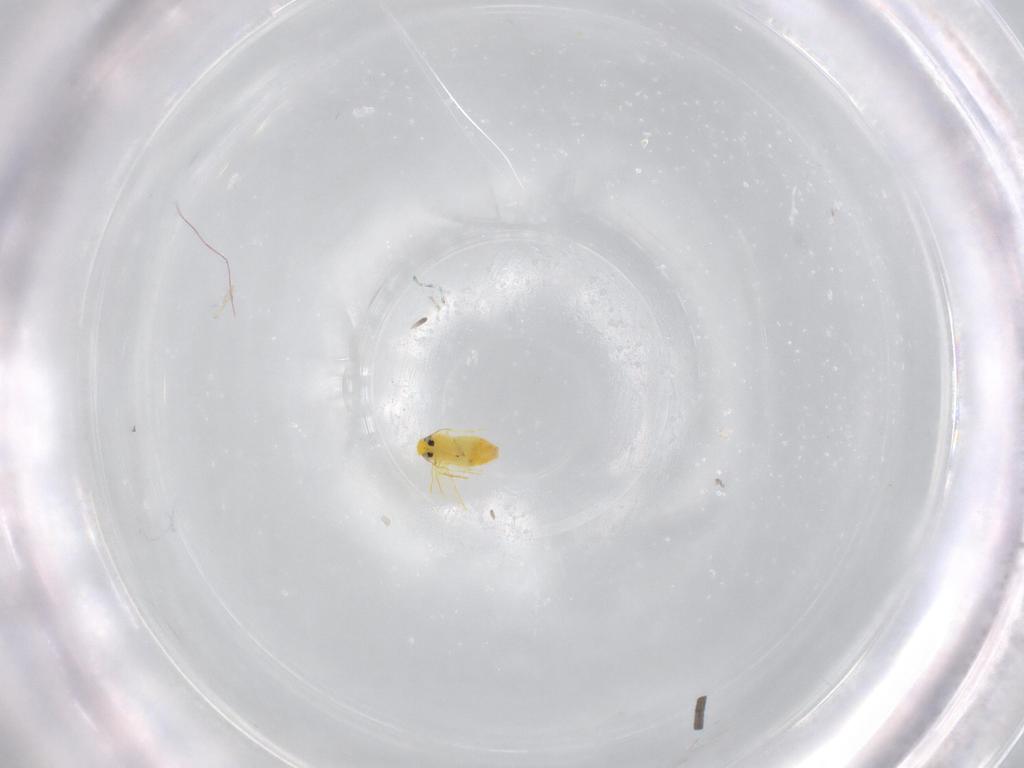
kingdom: Animalia
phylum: Arthropoda
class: Insecta
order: Hemiptera
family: Aleyrodidae
